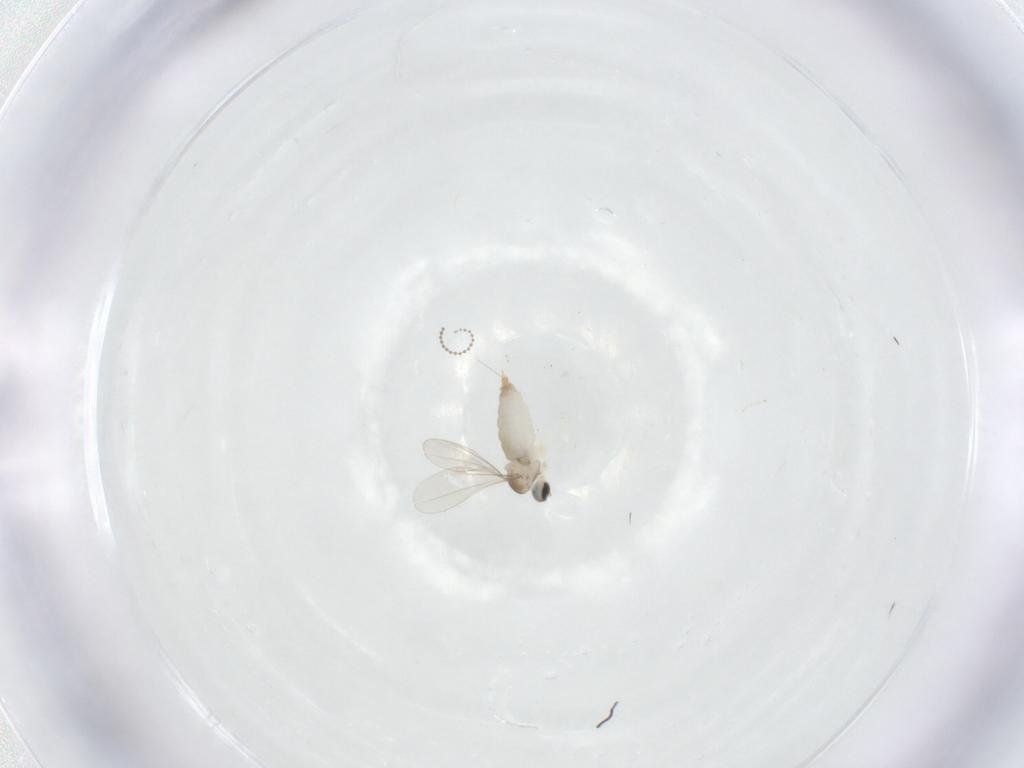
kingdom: Animalia
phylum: Arthropoda
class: Insecta
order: Diptera
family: Cecidomyiidae
